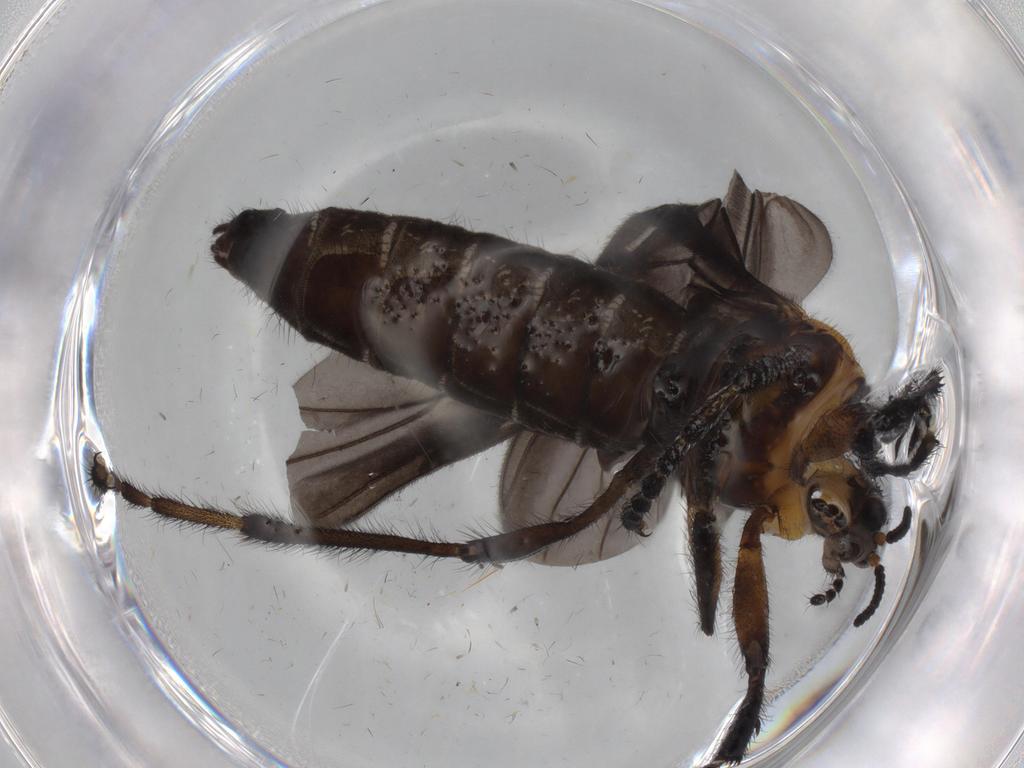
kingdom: Animalia
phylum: Arthropoda
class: Insecta
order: Diptera
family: Bibionidae
